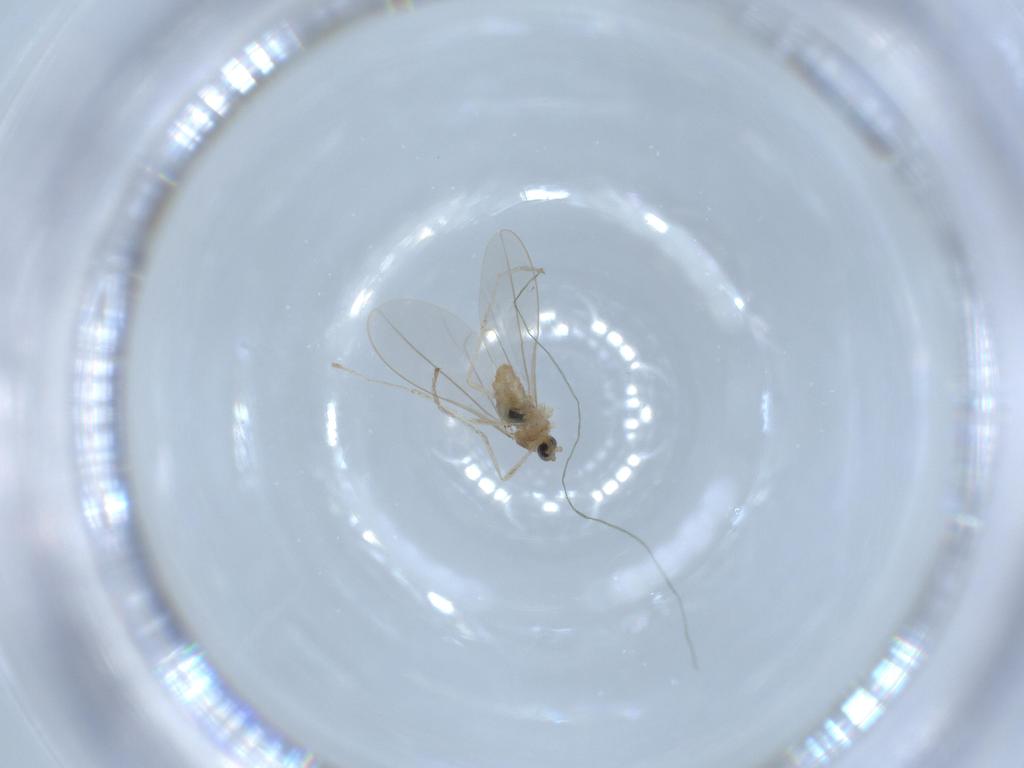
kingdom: Animalia
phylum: Arthropoda
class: Insecta
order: Diptera
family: Cecidomyiidae
